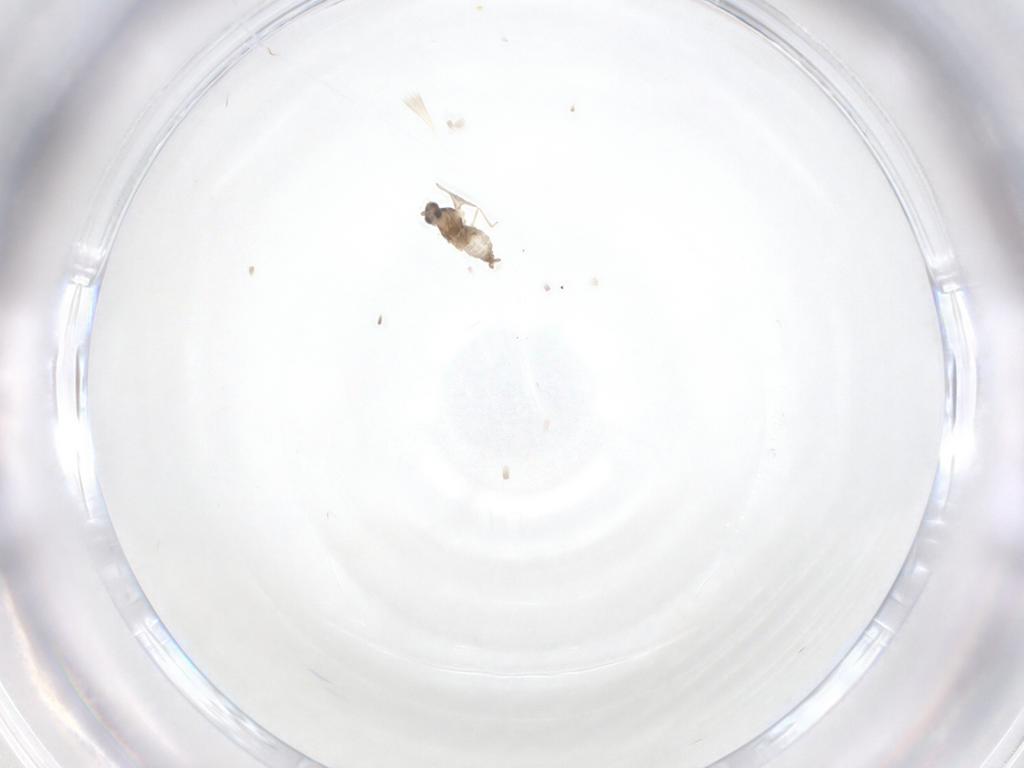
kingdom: Animalia
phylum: Arthropoda
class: Insecta
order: Diptera
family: Cecidomyiidae
